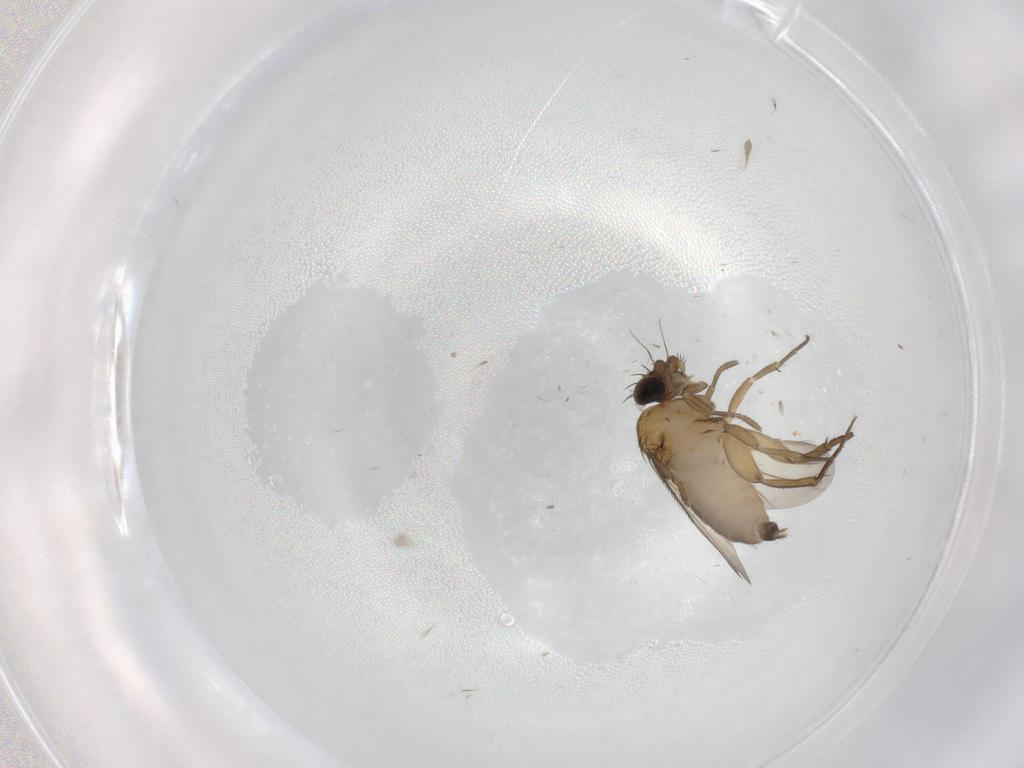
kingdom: Animalia
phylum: Arthropoda
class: Insecta
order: Diptera
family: Phoridae
